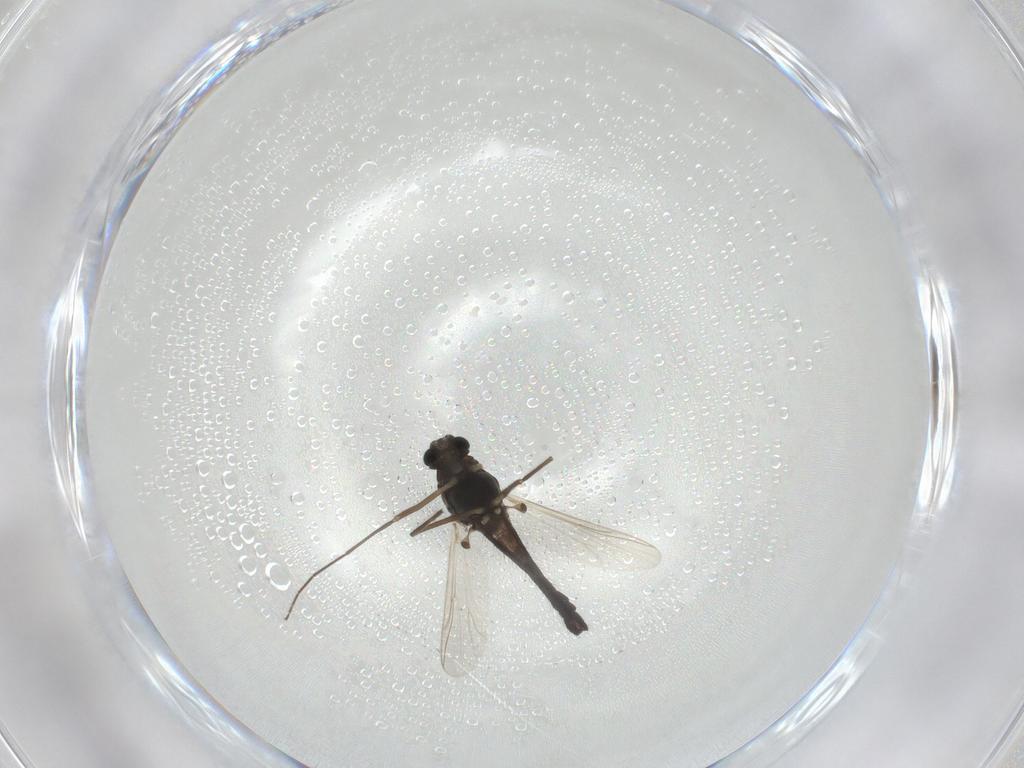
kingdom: Animalia
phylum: Arthropoda
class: Insecta
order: Diptera
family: Chironomidae
